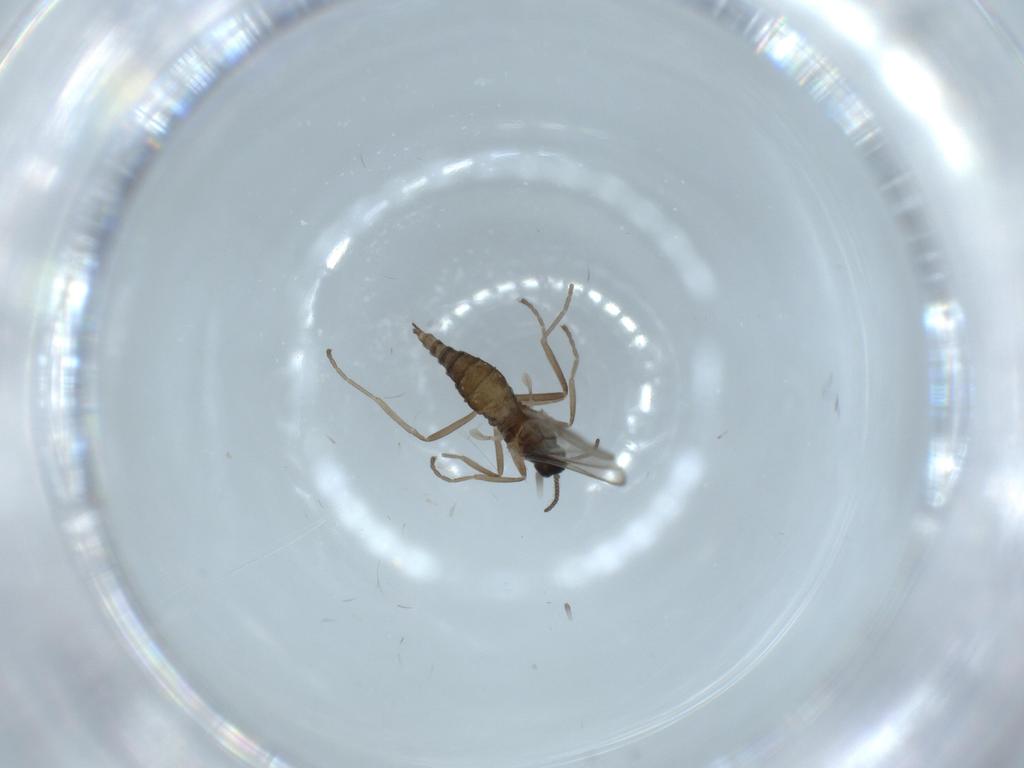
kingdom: Animalia
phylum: Arthropoda
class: Insecta
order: Diptera
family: Cecidomyiidae
